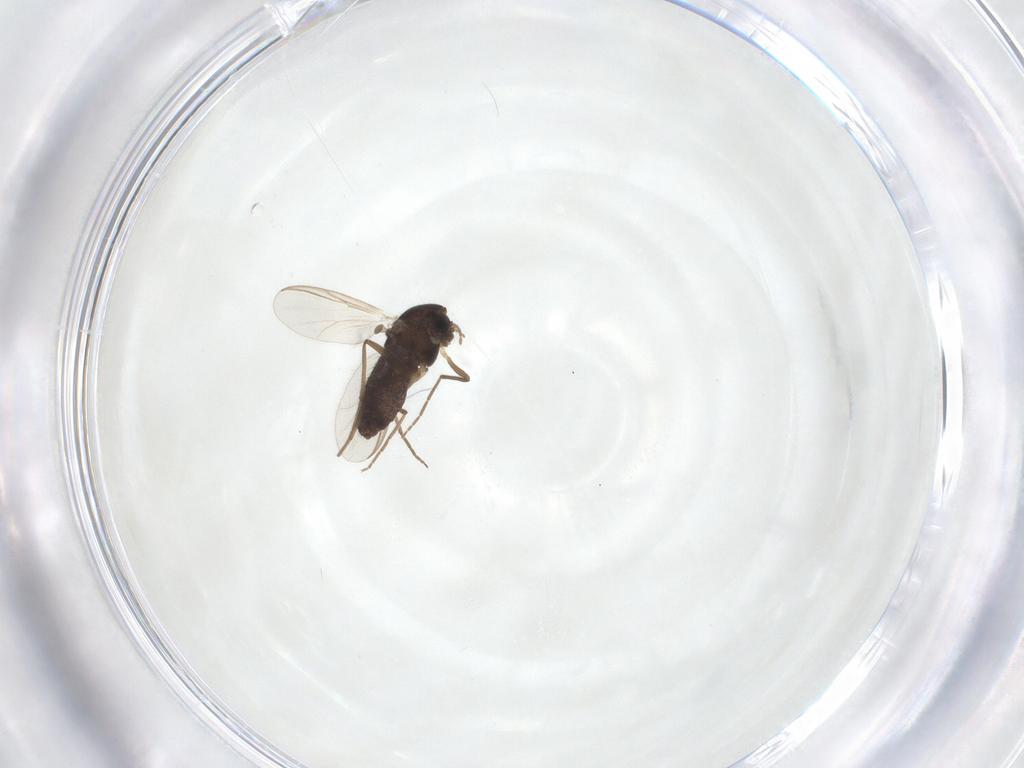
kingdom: Animalia
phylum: Arthropoda
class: Insecta
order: Diptera
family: Chironomidae
